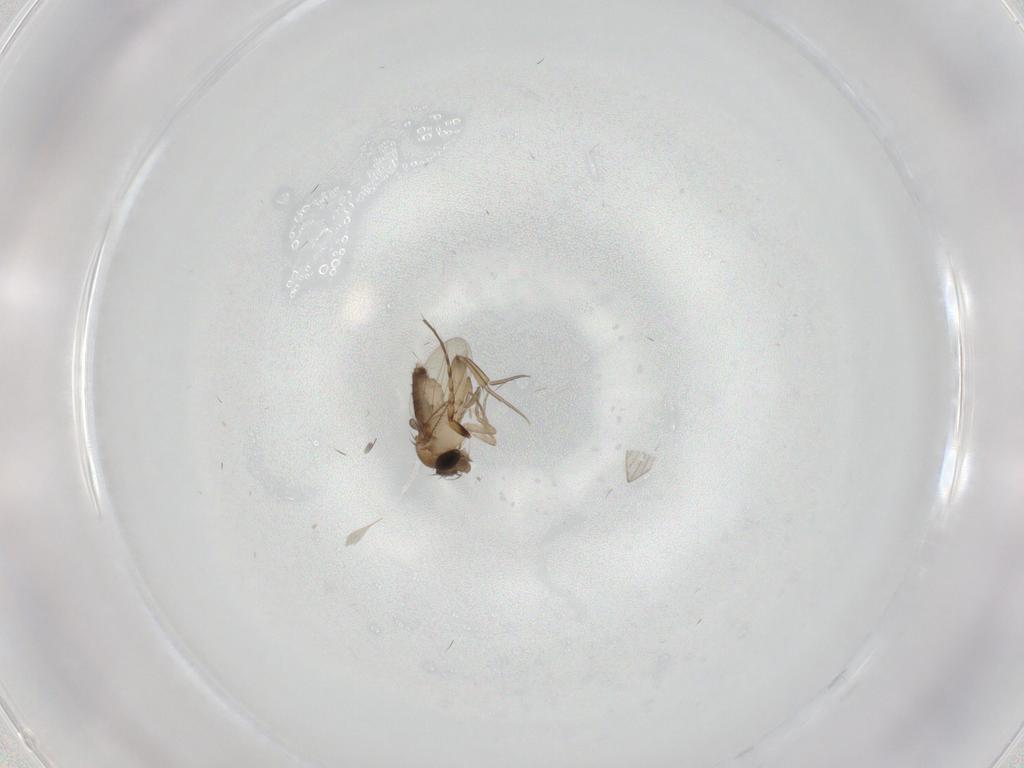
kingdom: Animalia
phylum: Arthropoda
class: Insecta
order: Diptera
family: Phoridae
